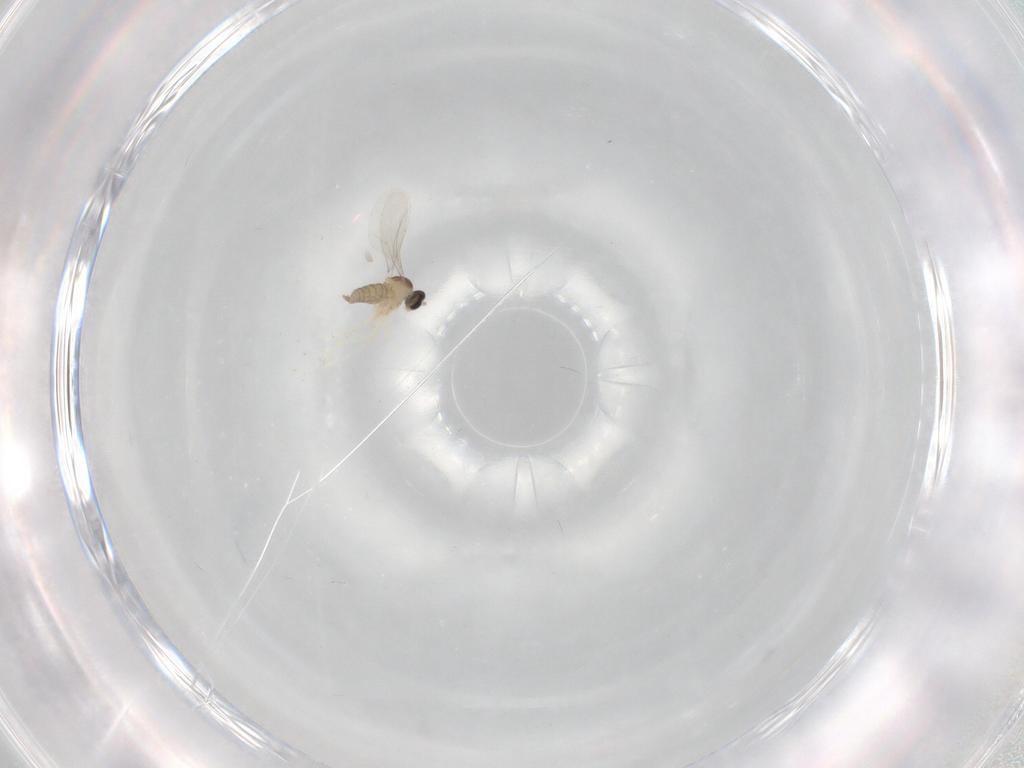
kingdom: Animalia
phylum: Arthropoda
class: Insecta
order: Diptera
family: Cecidomyiidae
